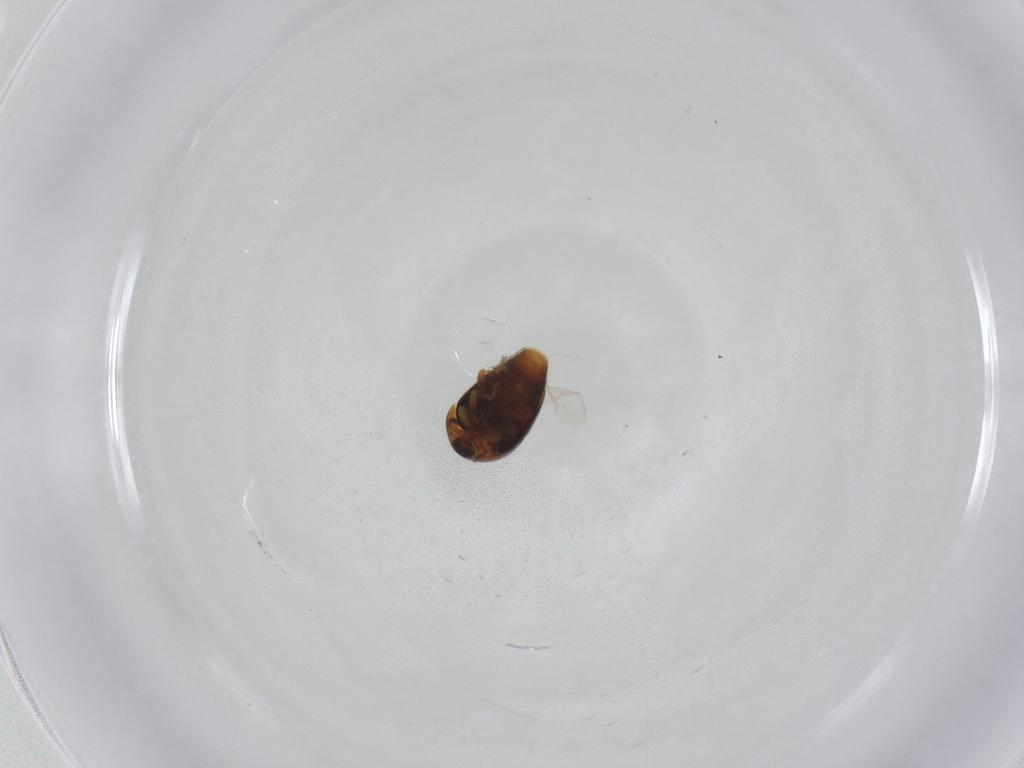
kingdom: Animalia
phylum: Arthropoda
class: Insecta
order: Coleoptera
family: Corylophidae
